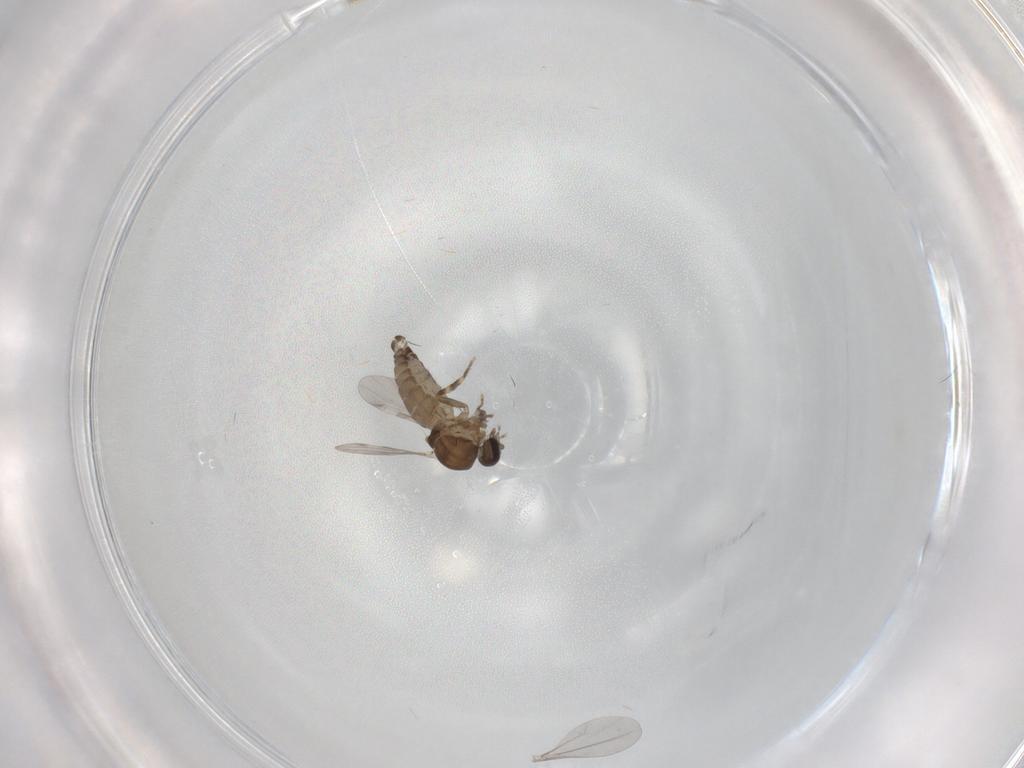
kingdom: Animalia
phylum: Arthropoda
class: Insecta
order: Diptera
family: Ceratopogonidae
